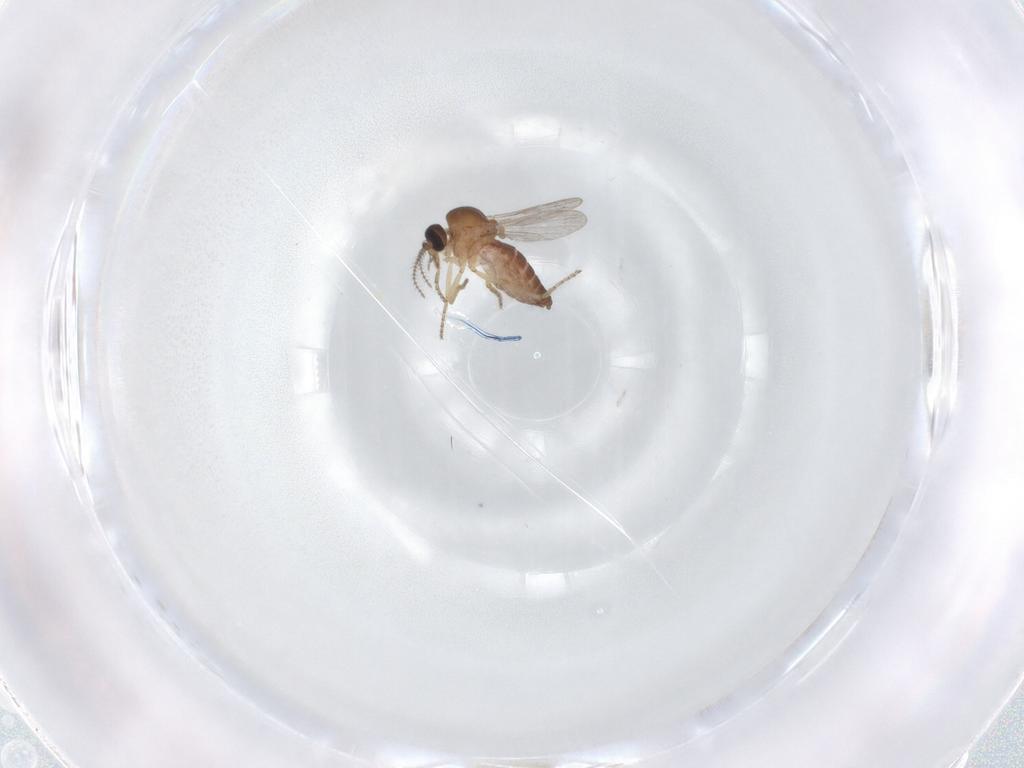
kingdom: Animalia
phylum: Arthropoda
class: Insecta
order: Diptera
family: Ceratopogonidae
